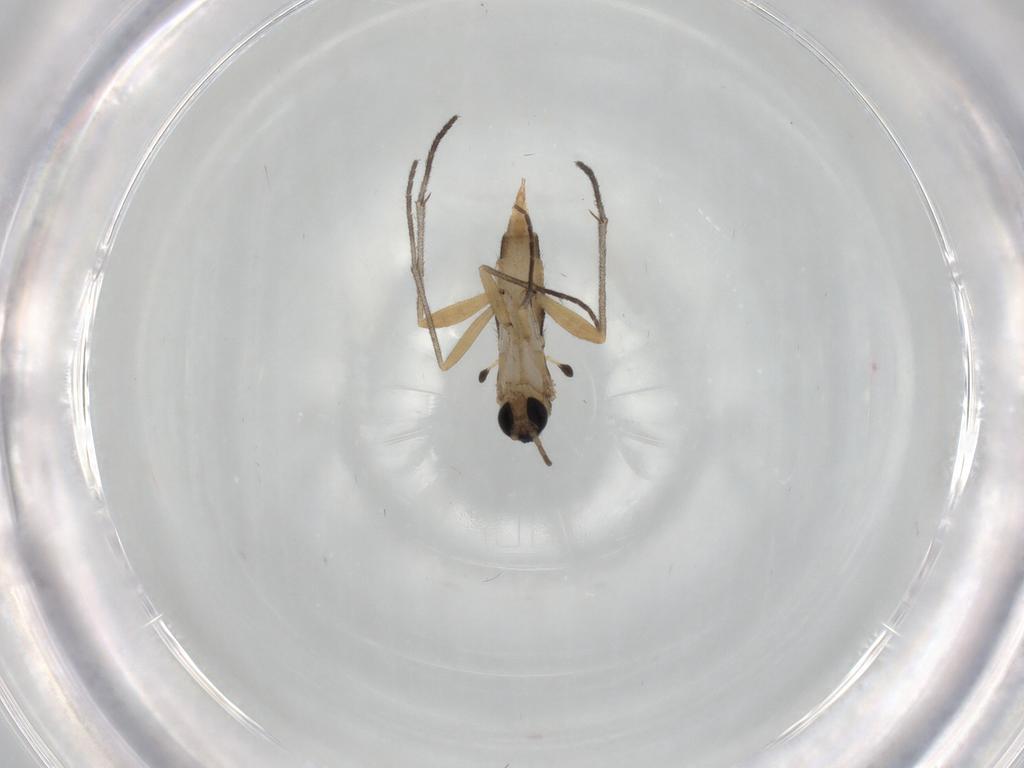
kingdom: Animalia
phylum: Arthropoda
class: Insecta
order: Diptera
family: Sciaridae
